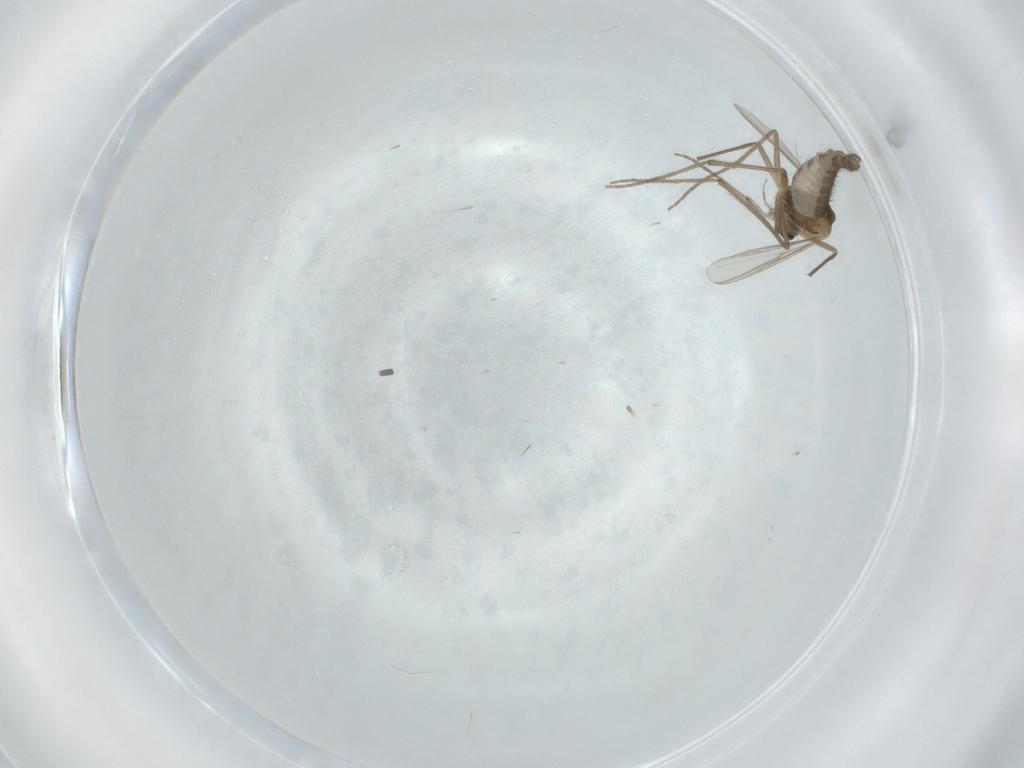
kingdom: Animalia
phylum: Arthropoda
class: Insecta
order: Diptera
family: Chironomidae
